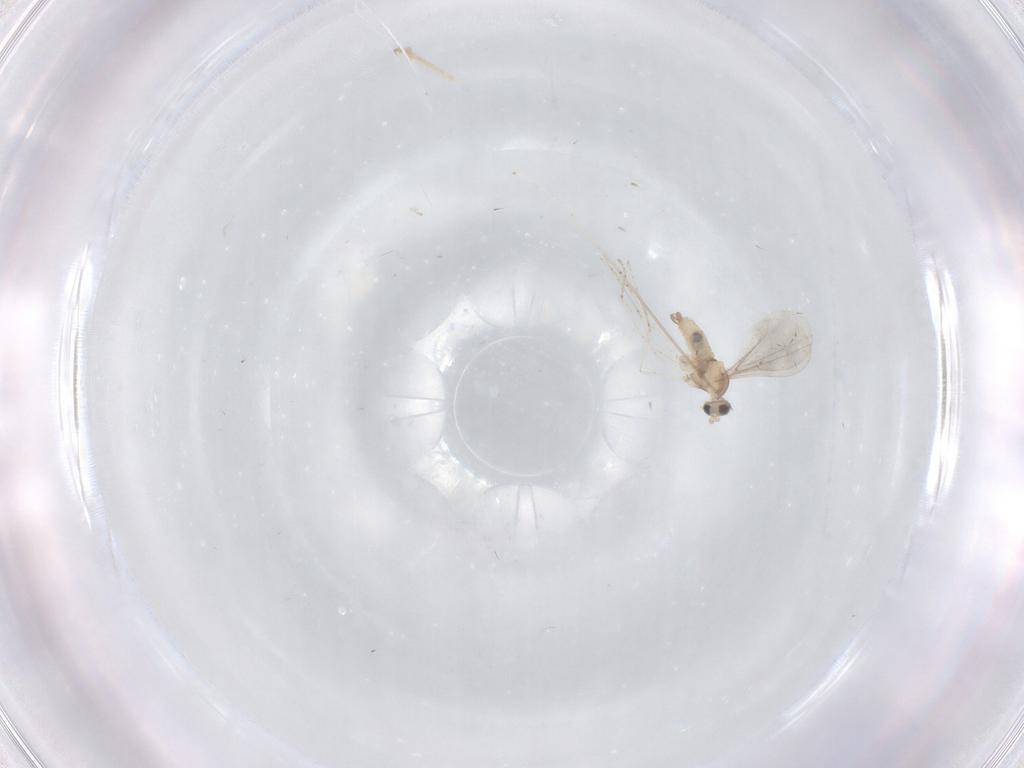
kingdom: Animalia
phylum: Arthropoda
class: Insecta
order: Diptera
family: Cecidomyiidae
